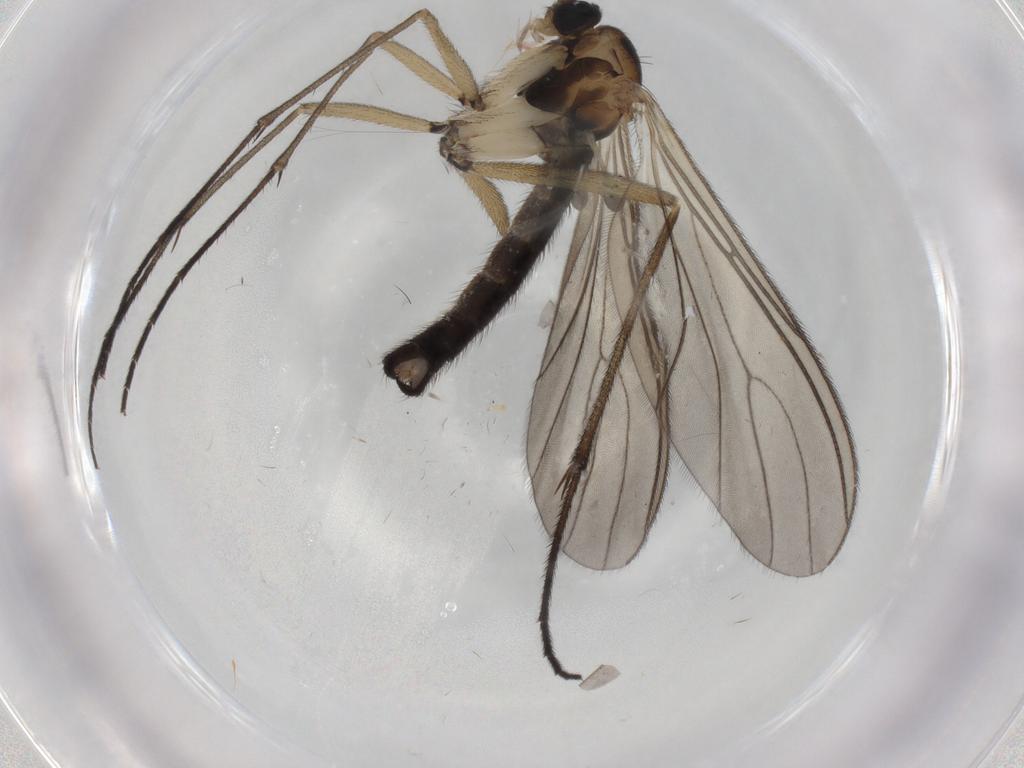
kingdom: Animalia
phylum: Arthropoda
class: Insecta
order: Diptera
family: Sciaridae
